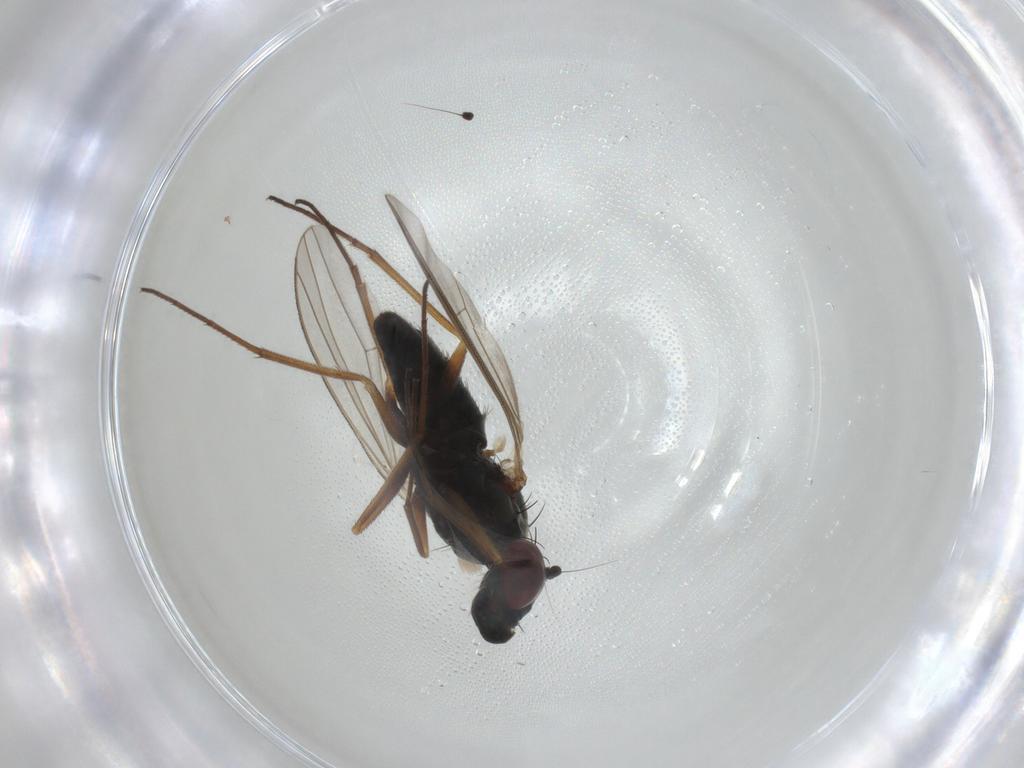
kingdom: Animalia
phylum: Arthropoda
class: Insecta
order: Diptera
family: Dolichopodidae
